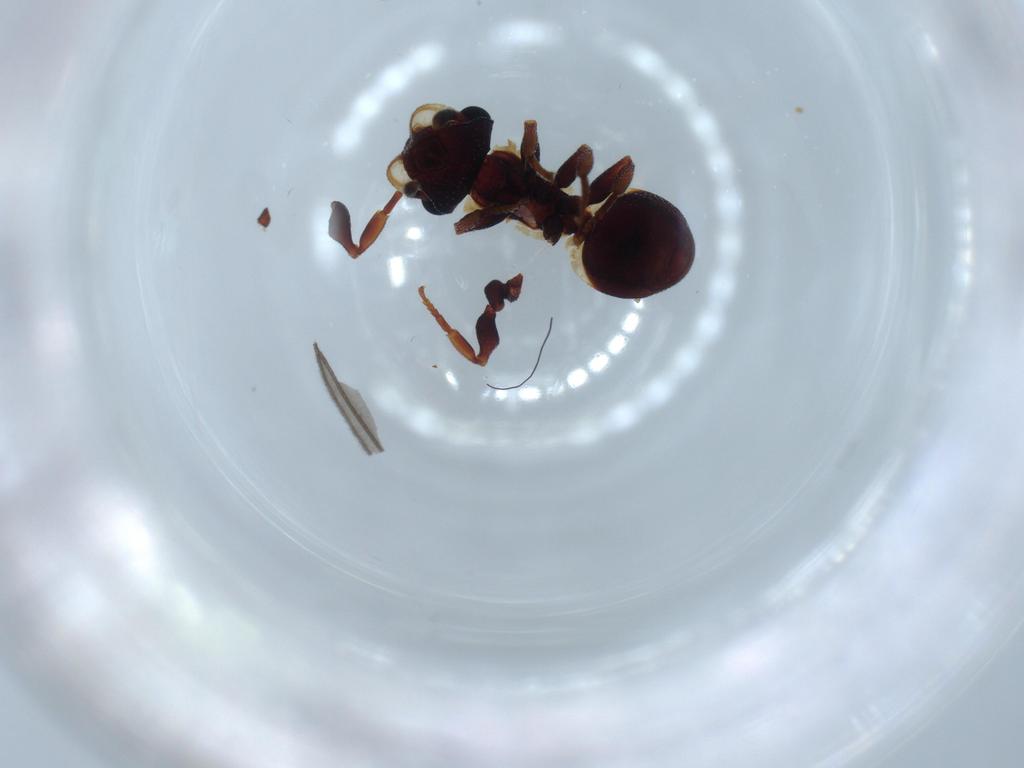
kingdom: Animalia
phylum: Arthropoda
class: Insecta
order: Hymenoptera
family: Formicidae
